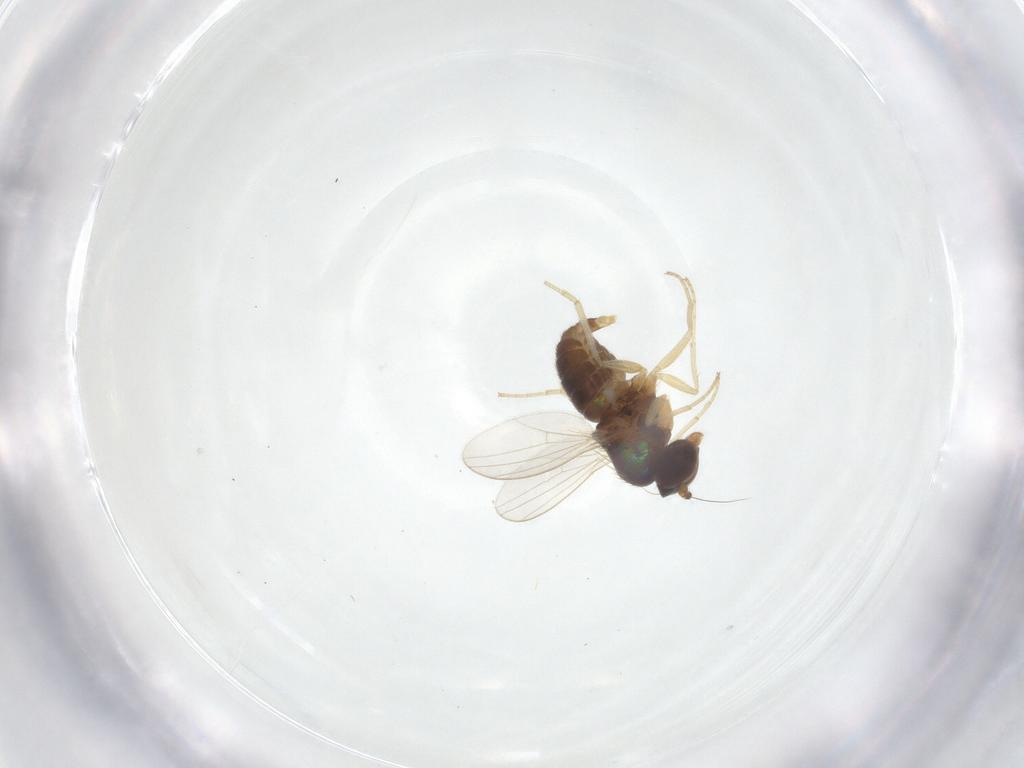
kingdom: Animalia
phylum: Arthropoda
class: Insecta
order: Diptera
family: Dolichopodidae
